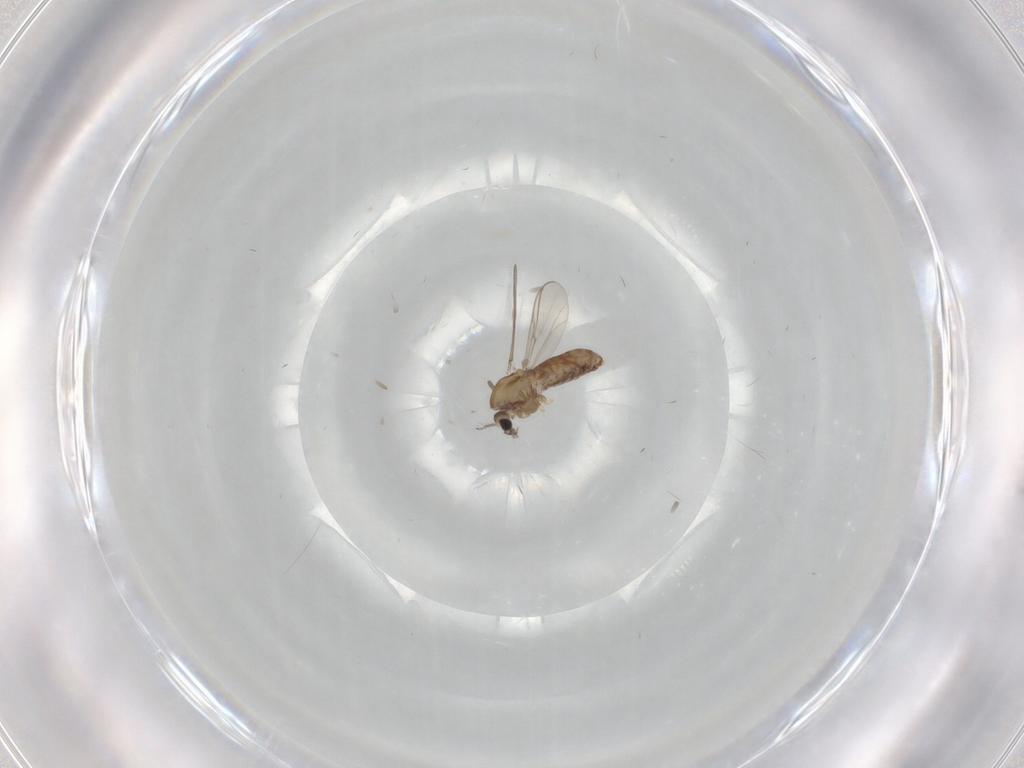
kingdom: Animalia
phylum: Arthropoda
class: Insecta
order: Diptera
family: Chironomidae
